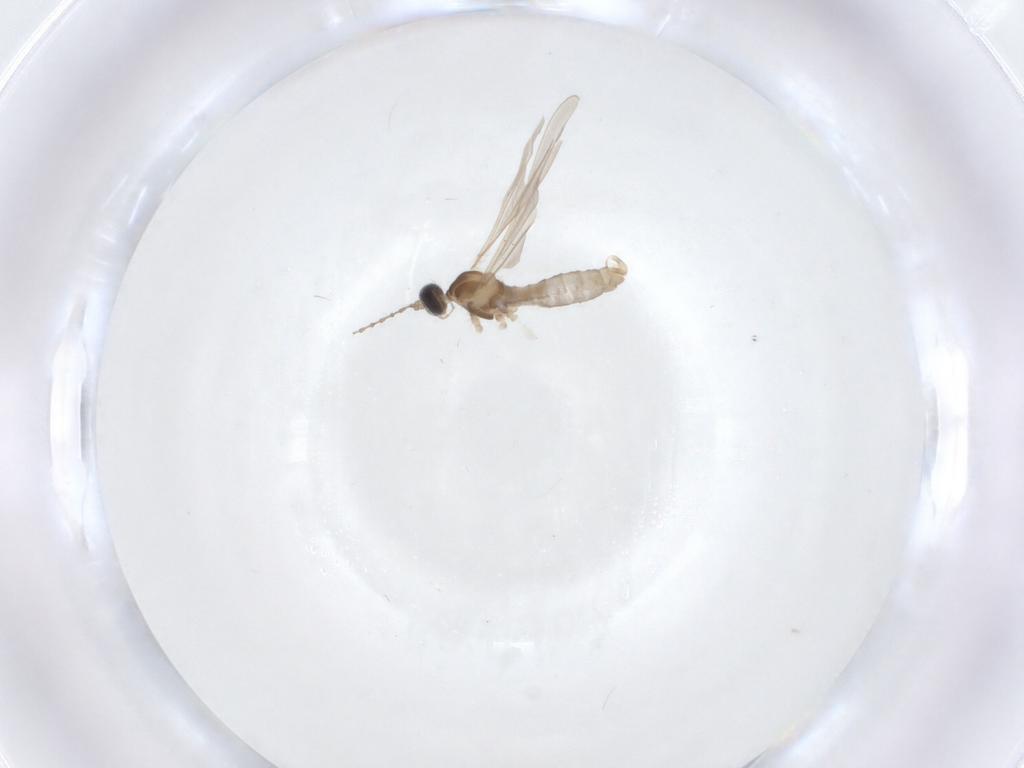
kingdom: Animalia
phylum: Arthropoda
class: Insecta
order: Diptera
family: Cecidomyiidae
